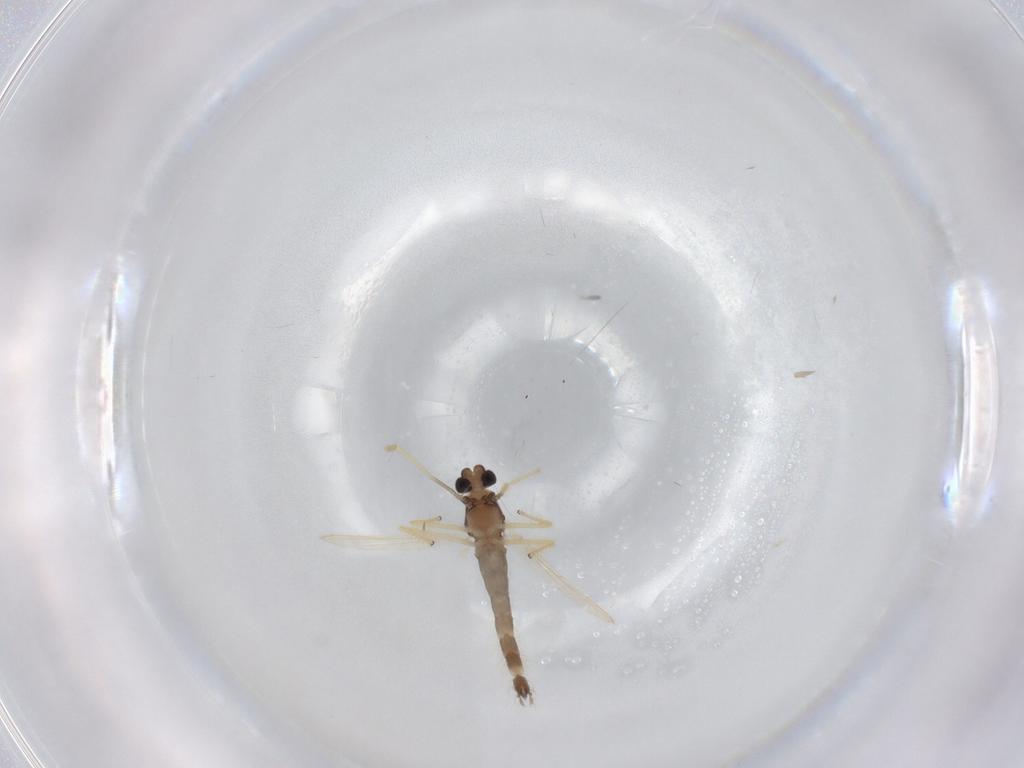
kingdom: Animalia
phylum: Arthropoda
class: Insecta
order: Diptera
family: Chironomidae
